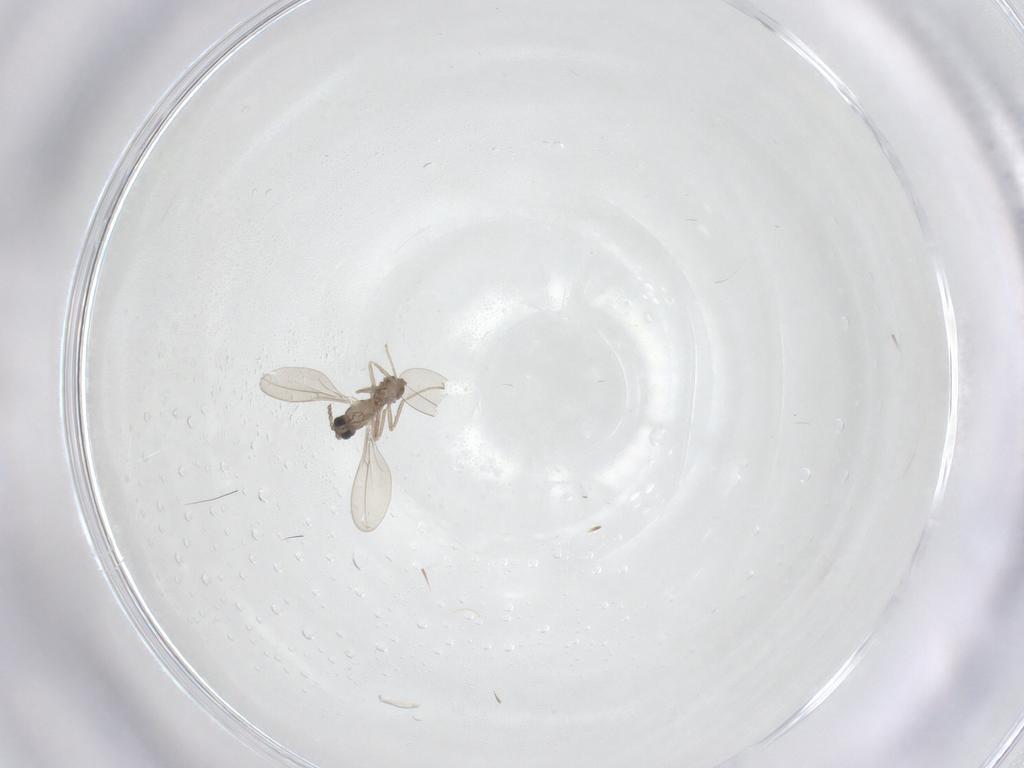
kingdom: Animalia
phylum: Arthropoda
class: Insecta
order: Diptera
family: Cecidomyiidae
